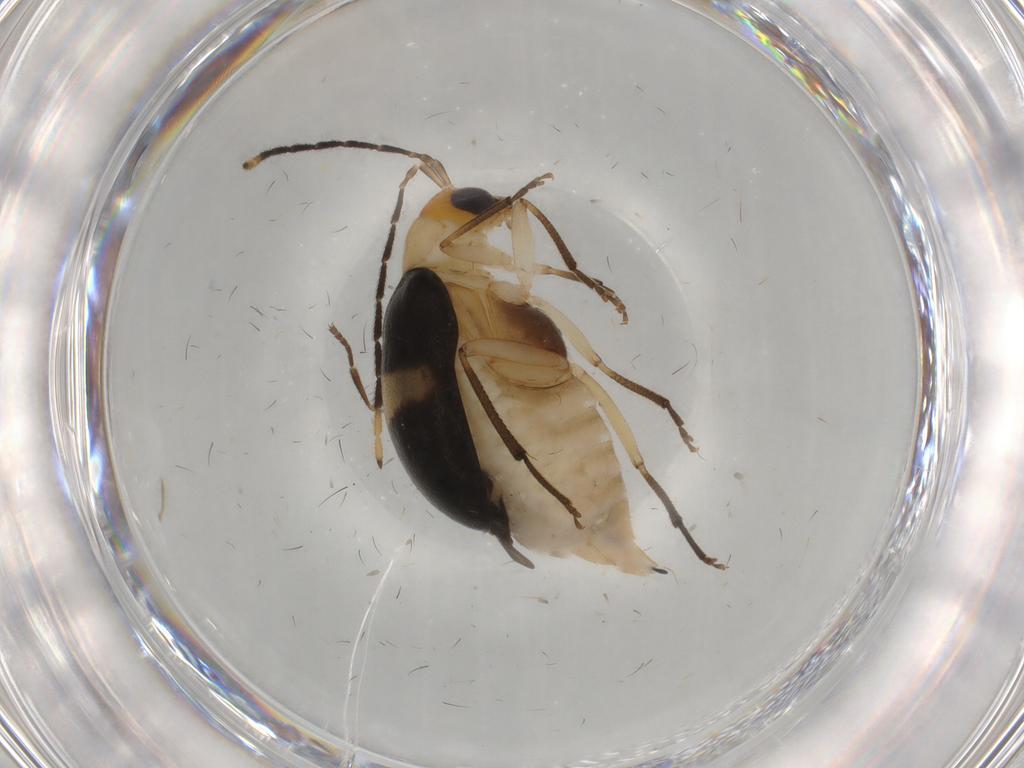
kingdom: Animalia
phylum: Arthropoda
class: Insecta
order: Coleoptera
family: Chrysomelidae
